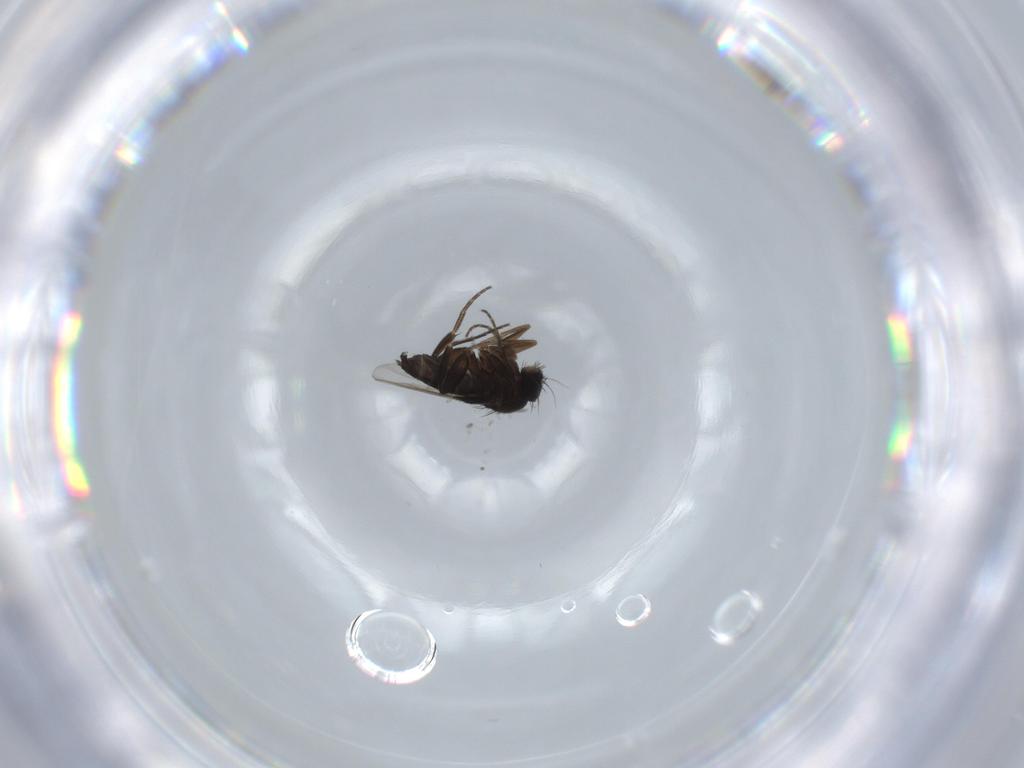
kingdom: Animalia
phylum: Arthropoda
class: Insecta
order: Diptera
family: Phoridae
